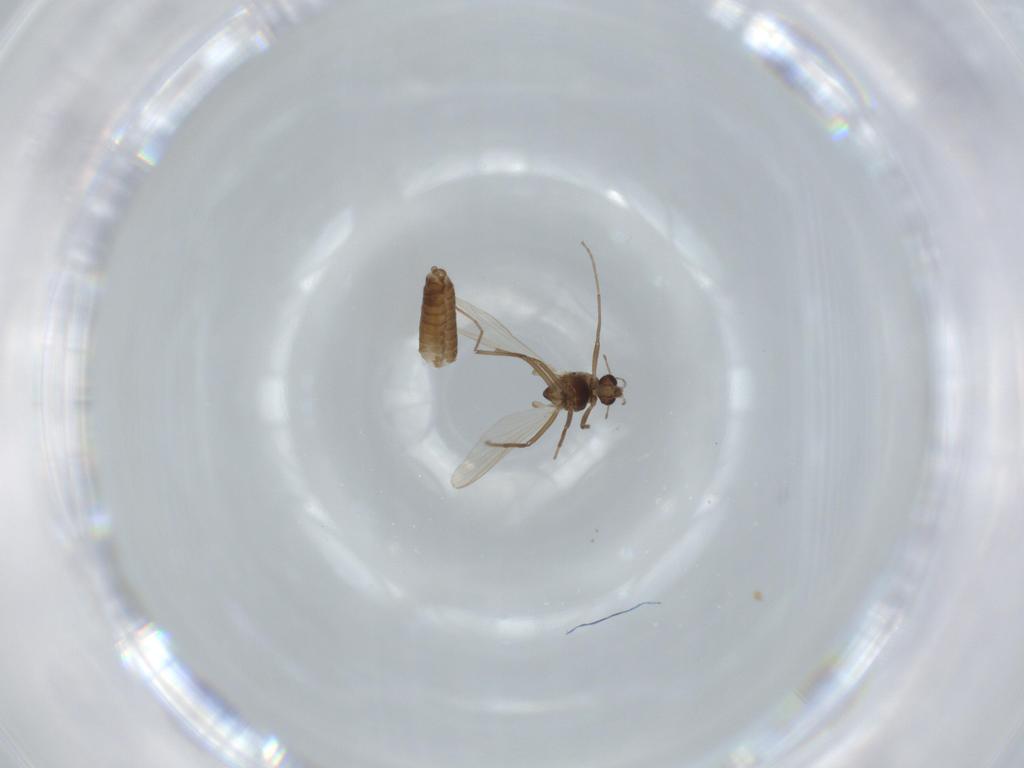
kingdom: Animalia
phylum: Arthropoda
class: Insecta
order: Diptera
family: Chironomidae
